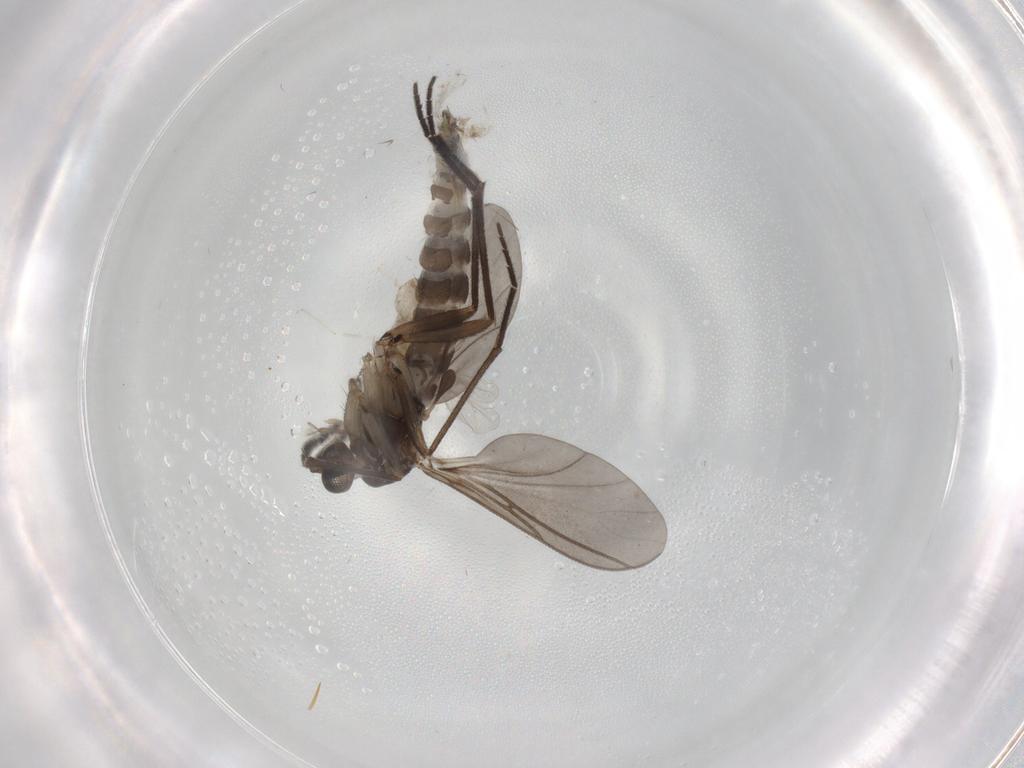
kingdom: Animalia
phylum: Arthropoda
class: Insecta
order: Diptera
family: Sciaridae
